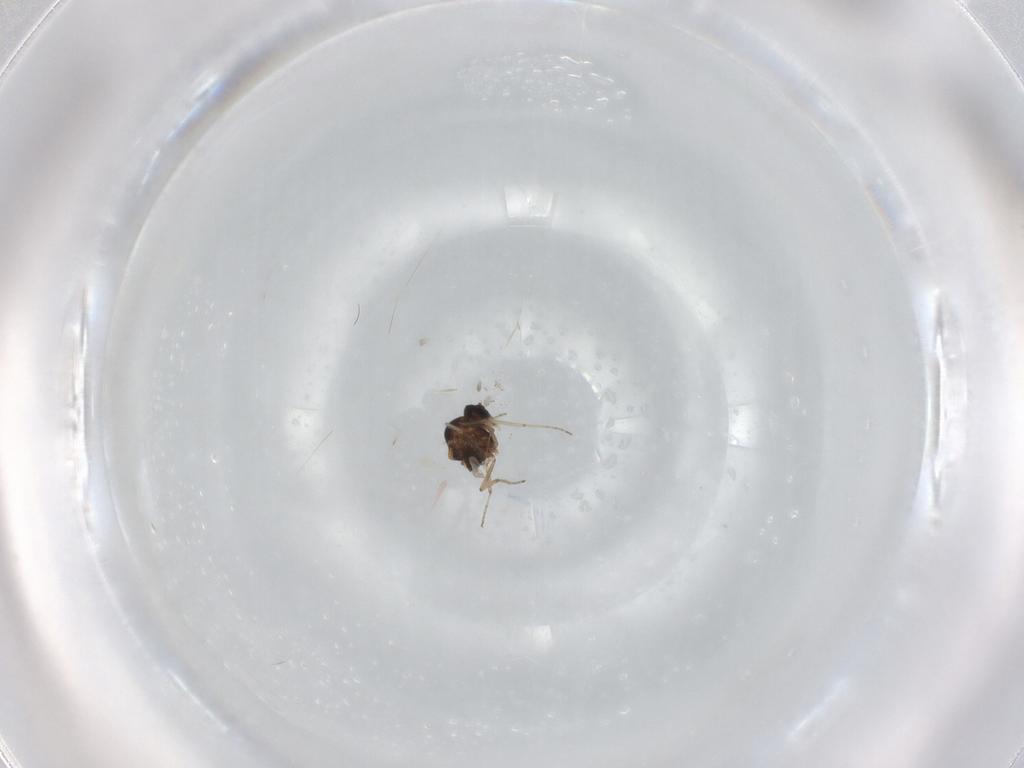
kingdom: Animalia
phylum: Arthropoda
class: Insecta
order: Diptera
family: Ceratopogonidae
